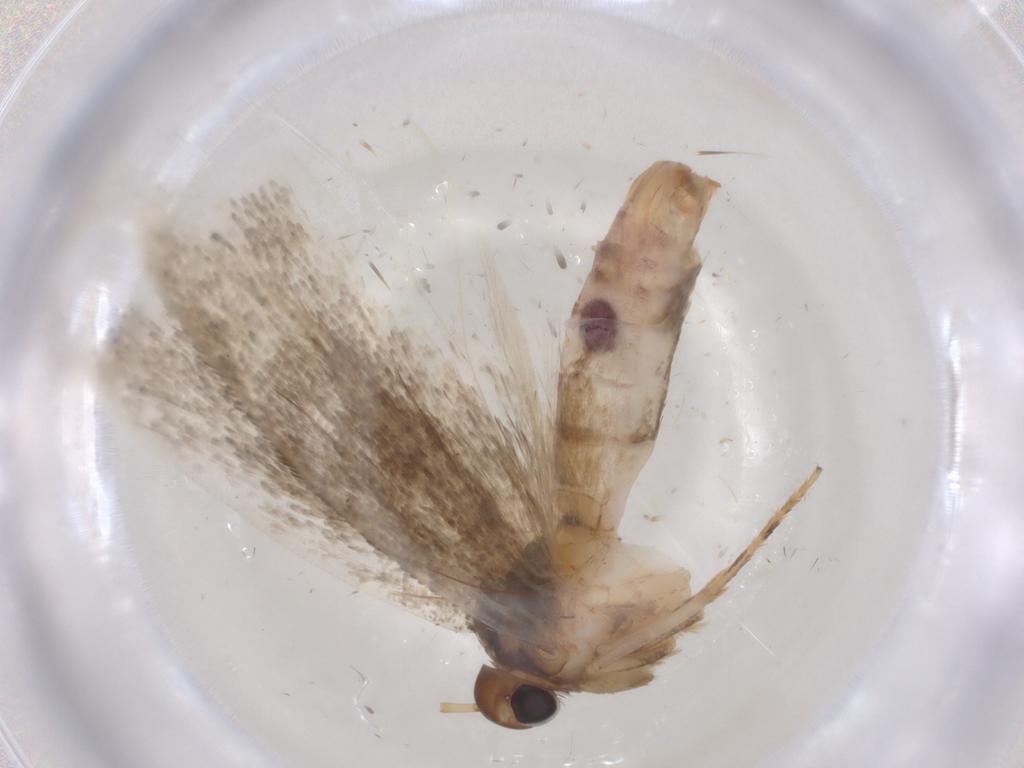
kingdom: Animalia
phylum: Arthropoda
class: Insecta
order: Lepidoptera
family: Gelechiidae
